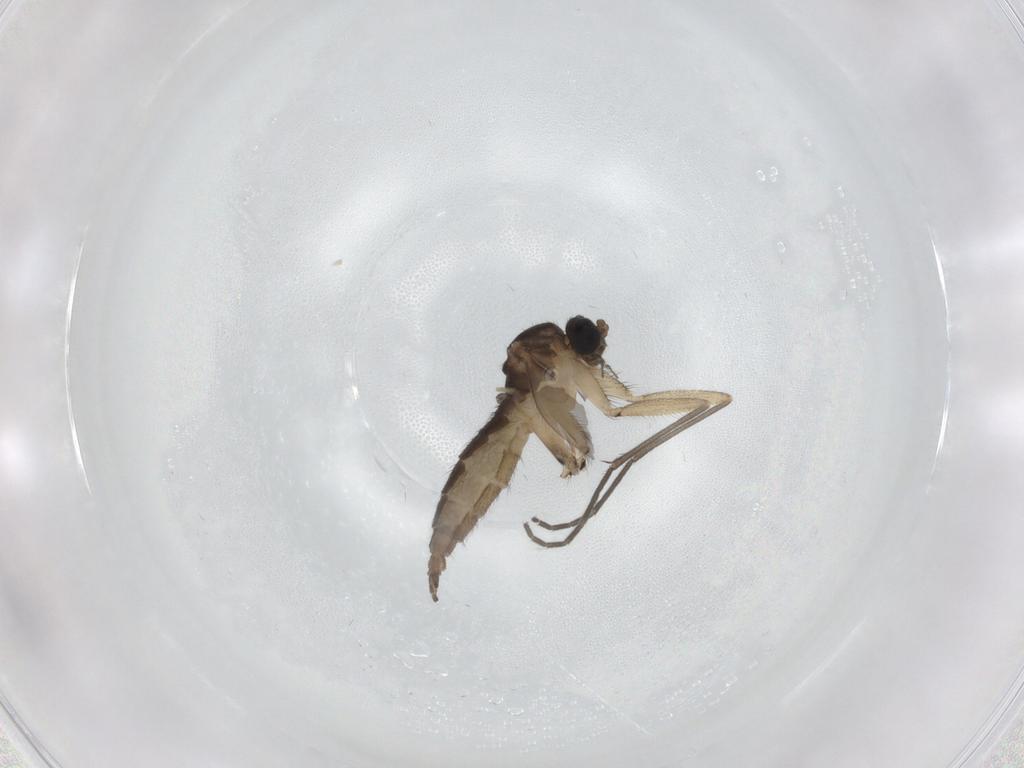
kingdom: Animalia
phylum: Arthropoda
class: Insecta
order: Diptera
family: Sciaridae
